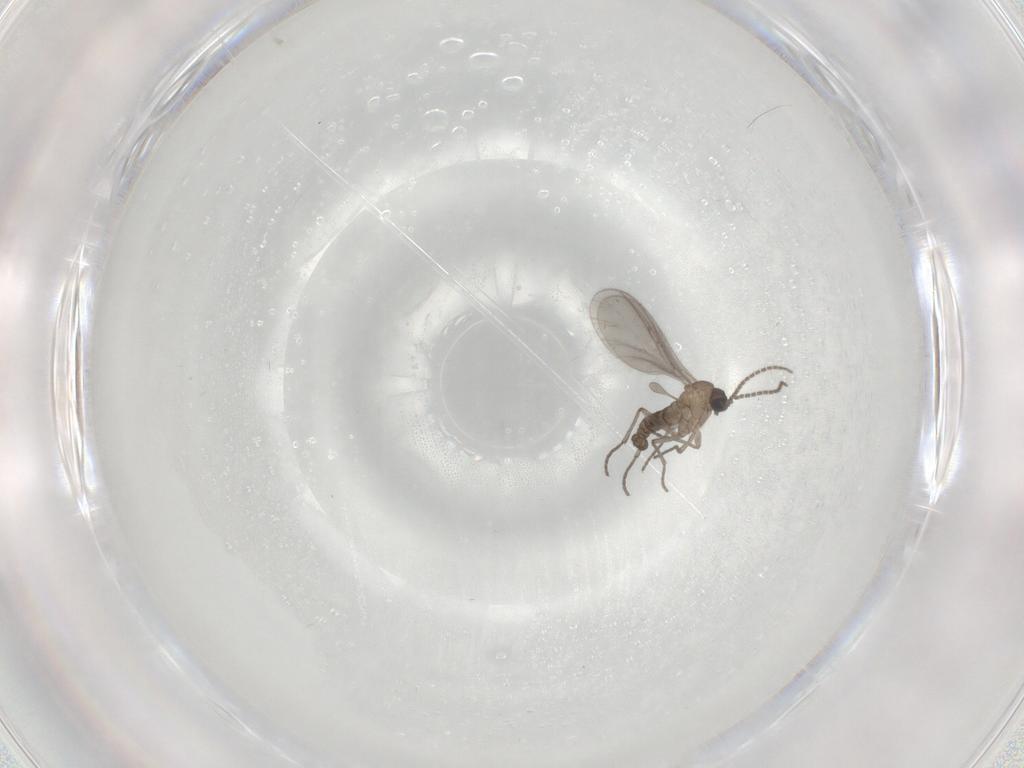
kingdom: Animalia
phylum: Arthropoda
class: Insecta
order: Diptera
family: Sciaridae
